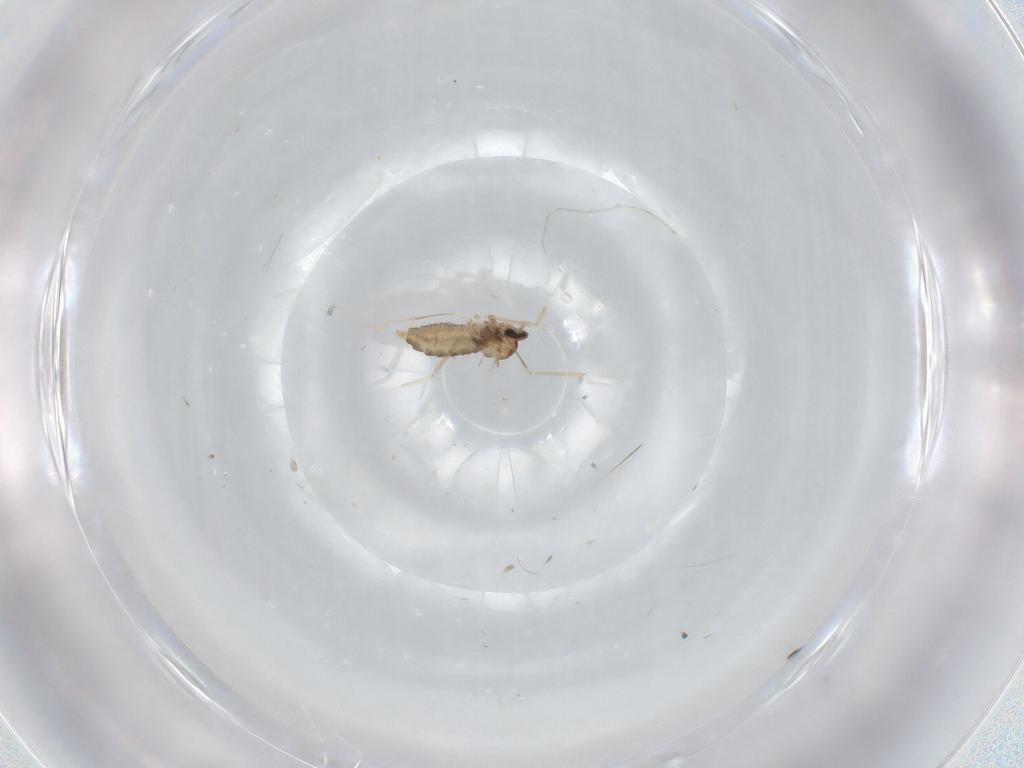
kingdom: Animalia
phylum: Arthropoda
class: Insecta
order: Diptera
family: Cecidomyiidae
